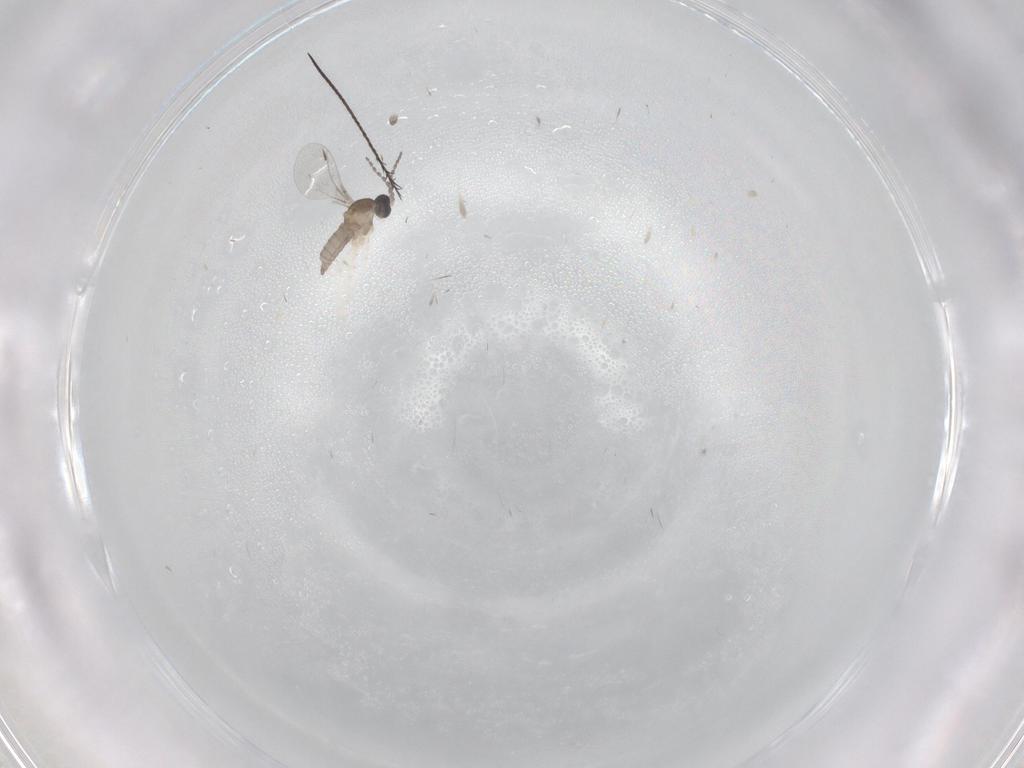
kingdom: Animalia
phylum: Arthropoda
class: Insecta
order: Diptera
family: Cecidomyiidae
